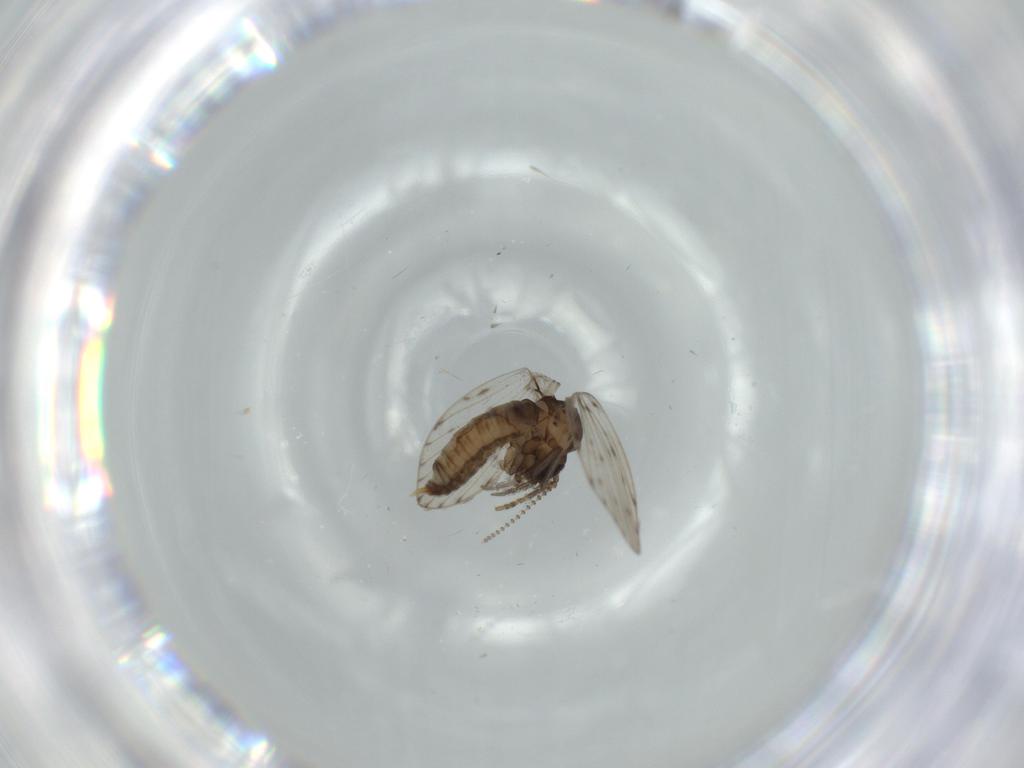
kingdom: Animalia
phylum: Arthropoda
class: Insecta
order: Diptera
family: Psychodidae
